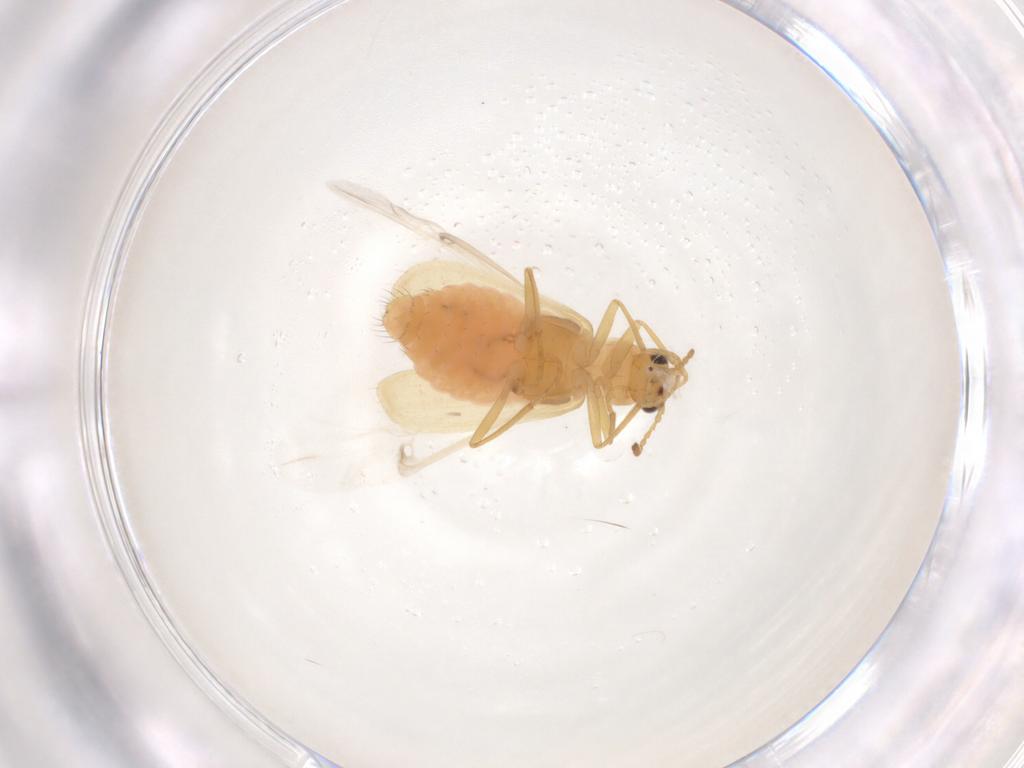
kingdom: Animalia
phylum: Arthropoda
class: Insecta
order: Coleoptera
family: Melyridae
